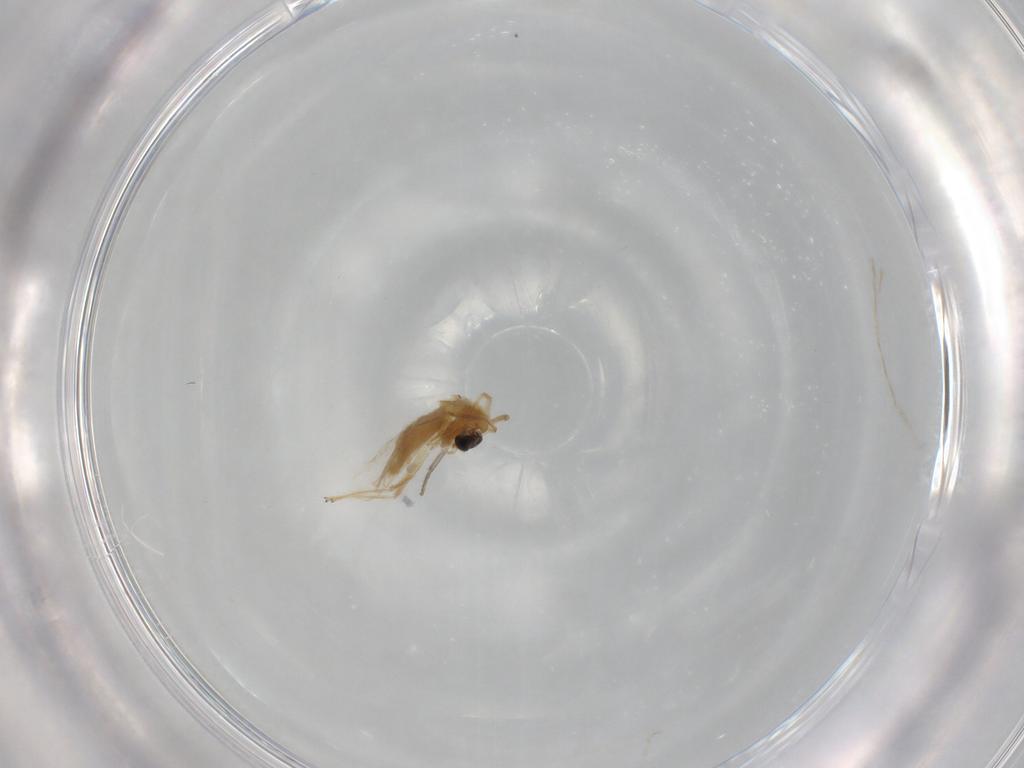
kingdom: Animalia
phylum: Arthropoda
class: Insecta
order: Diptera
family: Chironomidae
